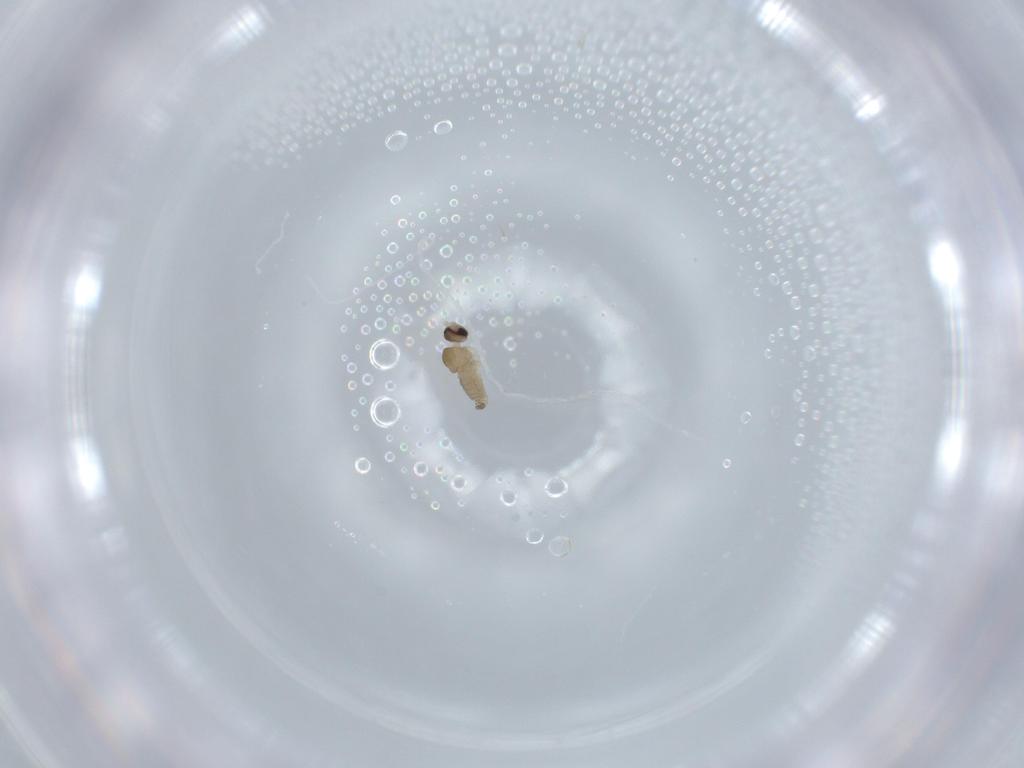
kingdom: Animalia
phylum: Arthropoda
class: Insecta
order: Diptera
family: Cecidomyiidae
